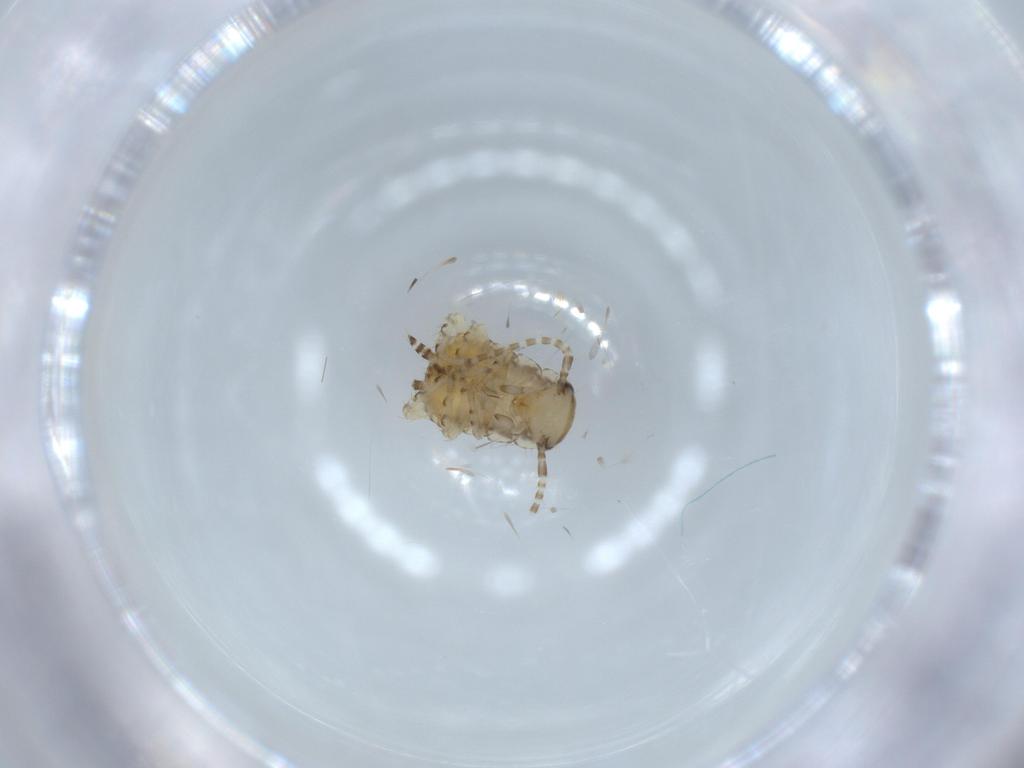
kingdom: Animalia
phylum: Arthropoda
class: Insecta
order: Blattodea
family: Ectobiidae
